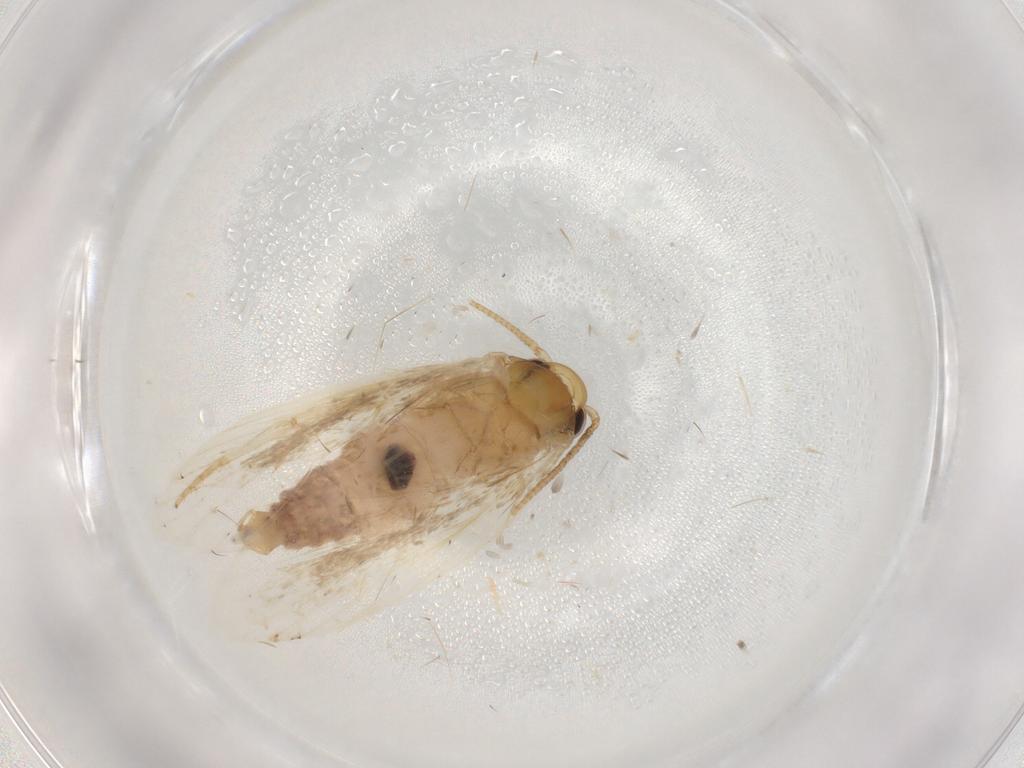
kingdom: Animalia
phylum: Arthropoda
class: Insecta
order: Lepidoptera
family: Depressariidae
